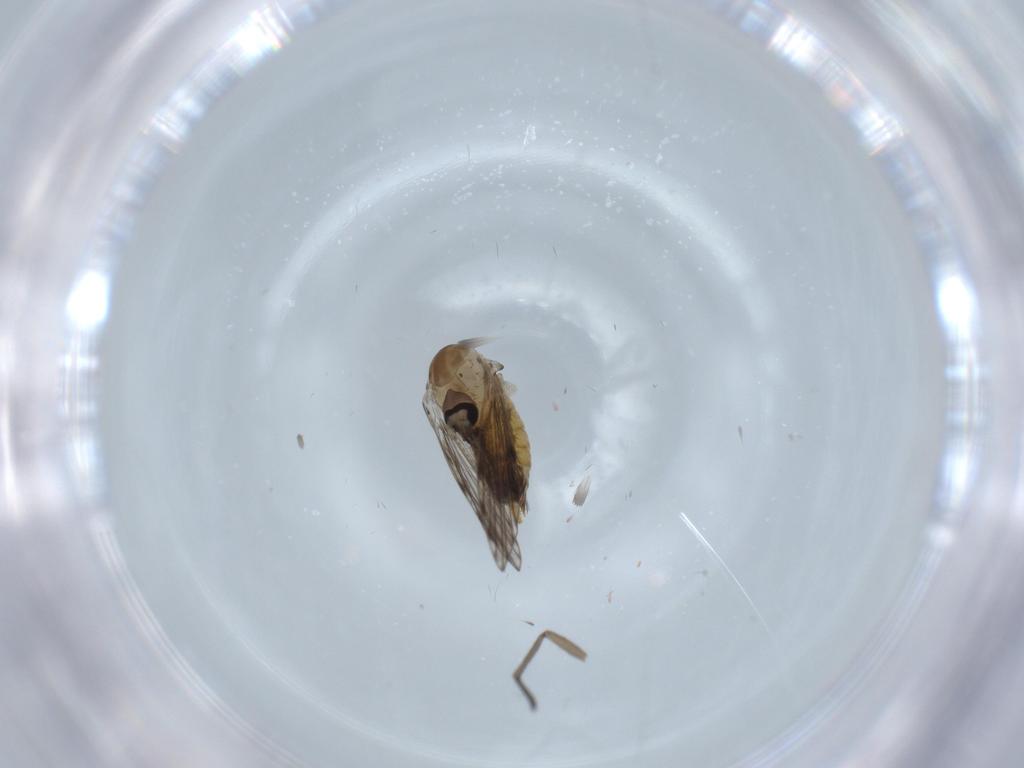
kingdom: Animalia
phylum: Arthropoda
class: Insecta
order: Diptera
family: Psychodidae
